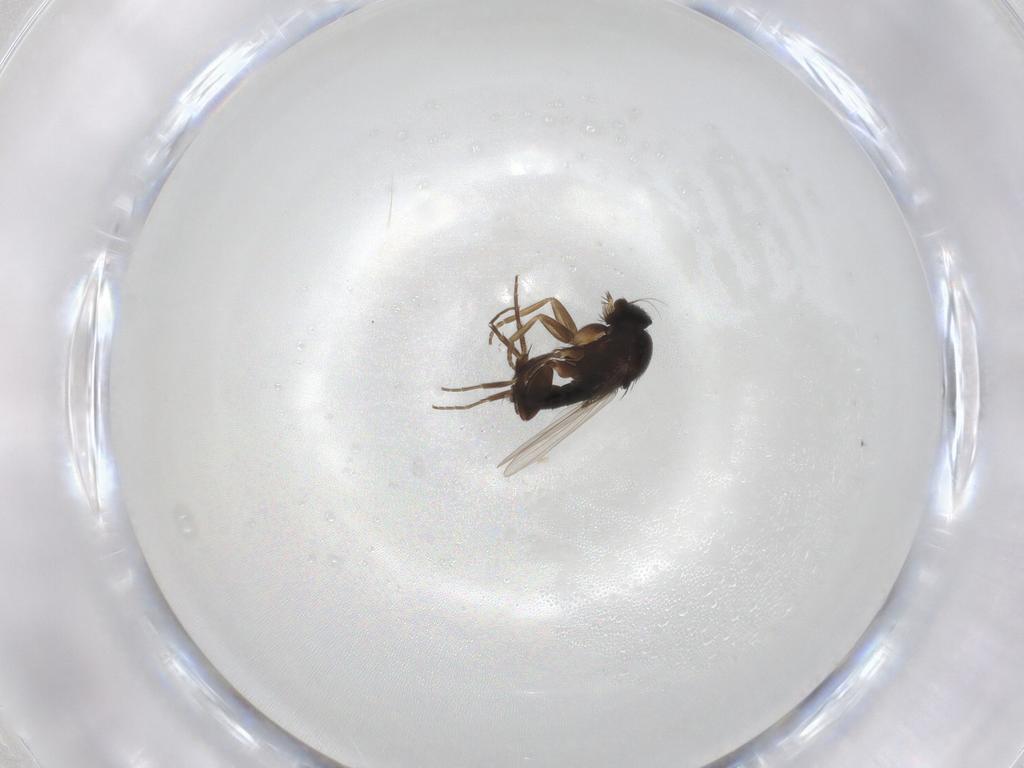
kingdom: Animalia
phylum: Arthropoda
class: Insecta
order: Diptera
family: Phoridae
